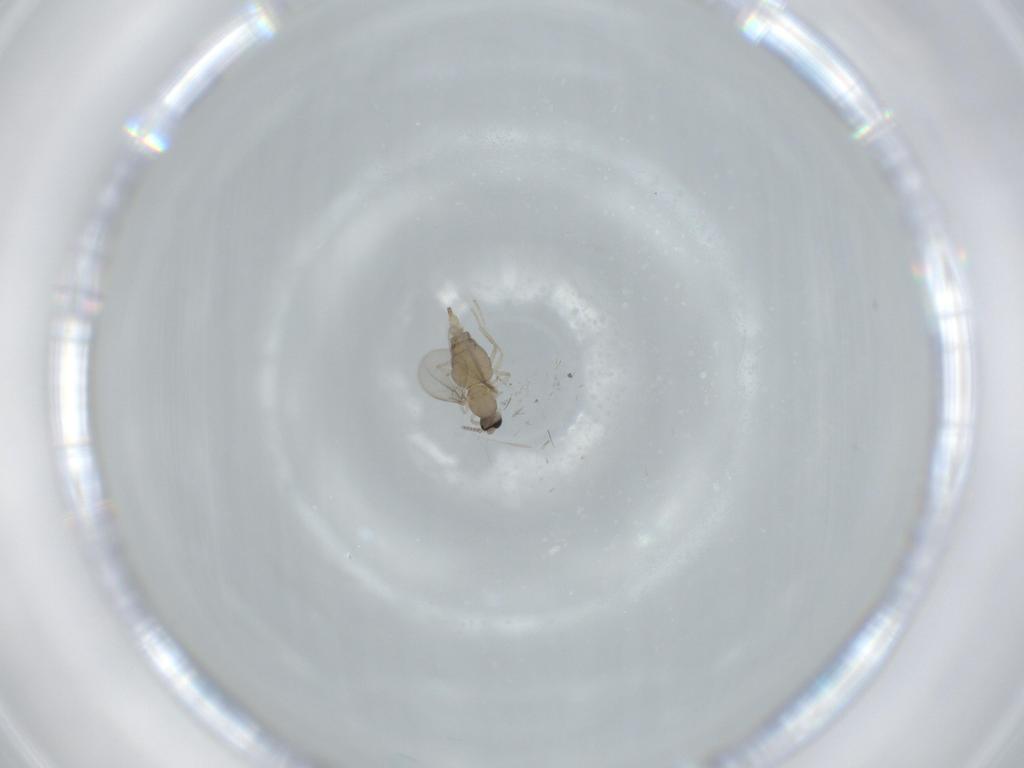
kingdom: Animalia
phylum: Arthropoda
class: Insecta
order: Diptera
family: Cecidomyiidae
